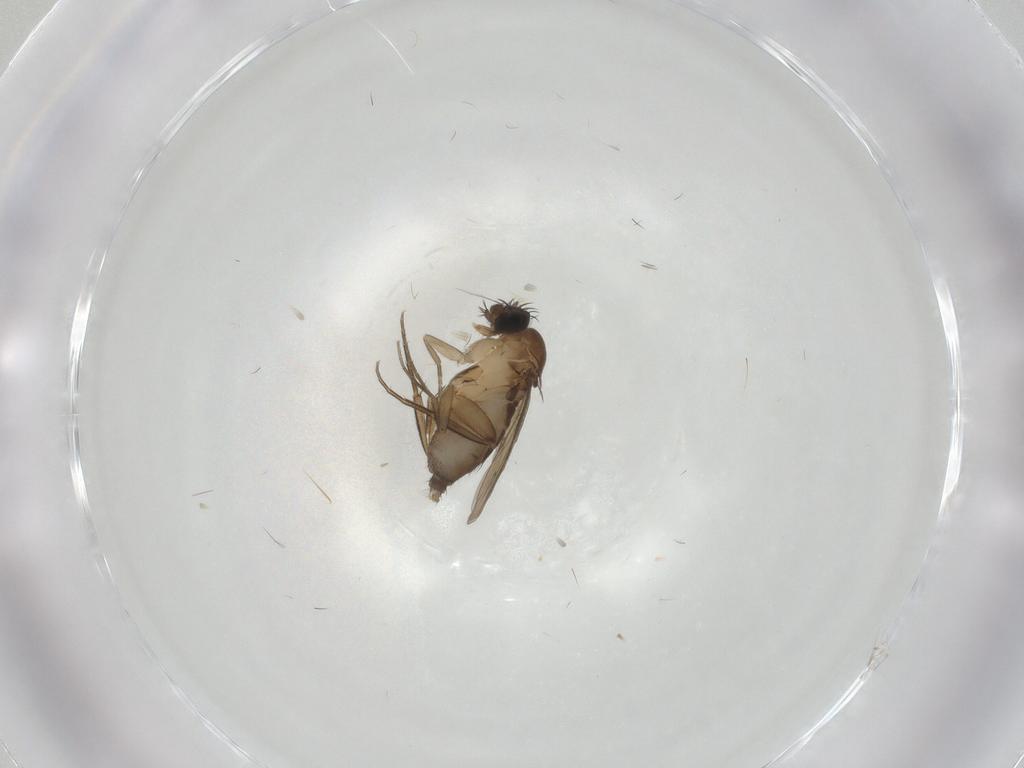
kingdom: Animalia
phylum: Arthropoda
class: Insecta
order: Diptera
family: Phoridae
